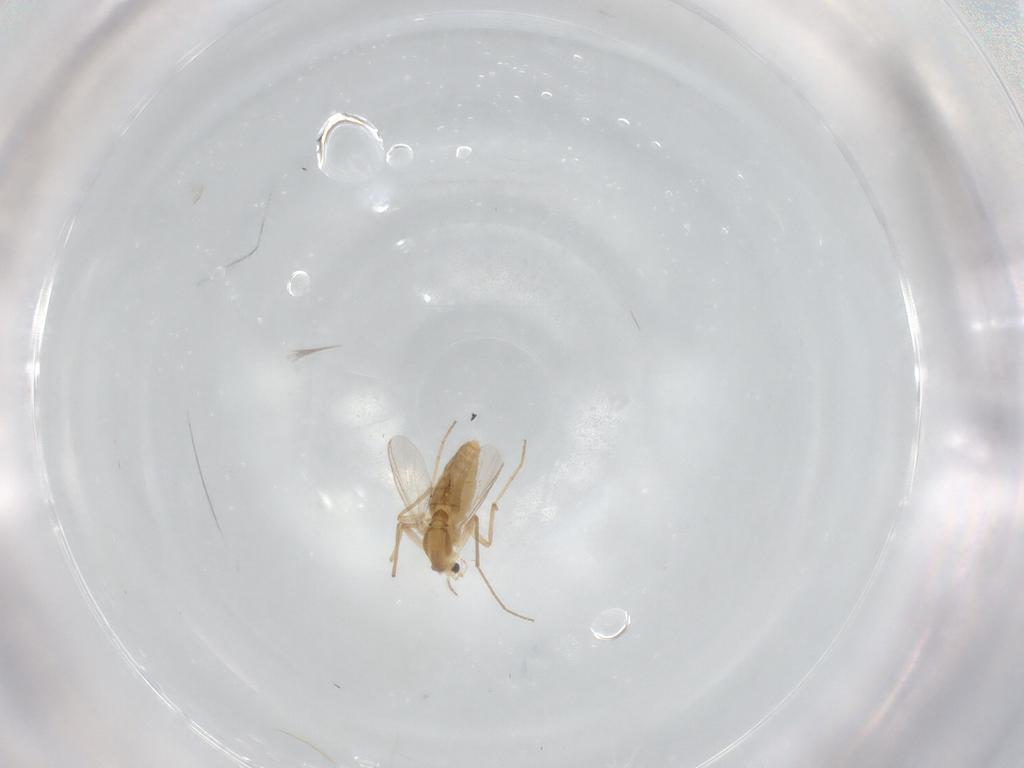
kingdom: Animalia
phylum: Arthropoda
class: Insecta
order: Diptera
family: Chironomidae
